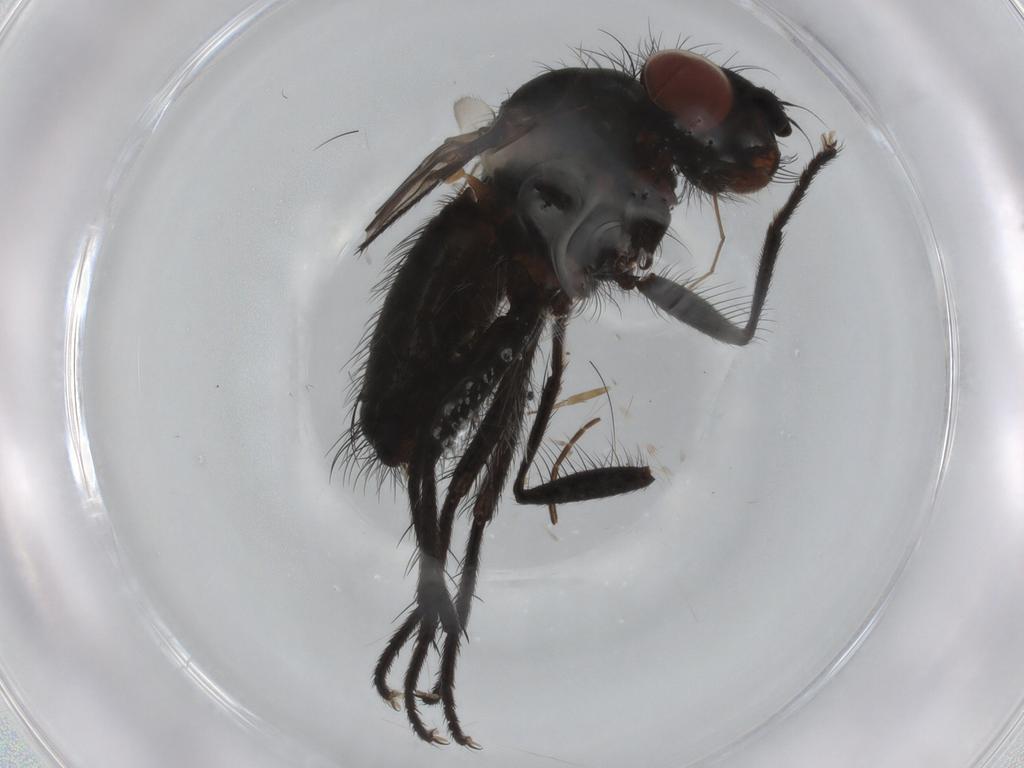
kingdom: Animalia
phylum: Arthropoda
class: Insecta
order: Diptera
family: Anthomyiidae
